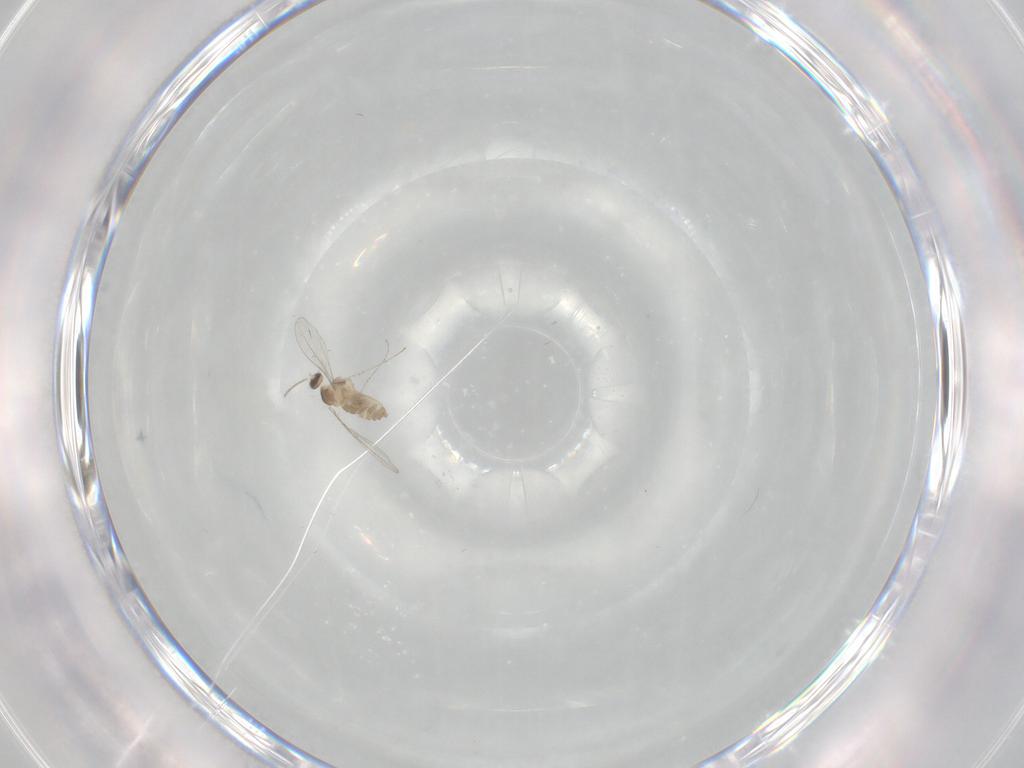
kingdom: Animalia
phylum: Arthropoda
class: Insecta
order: Diptera
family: Cecidomyiidae
